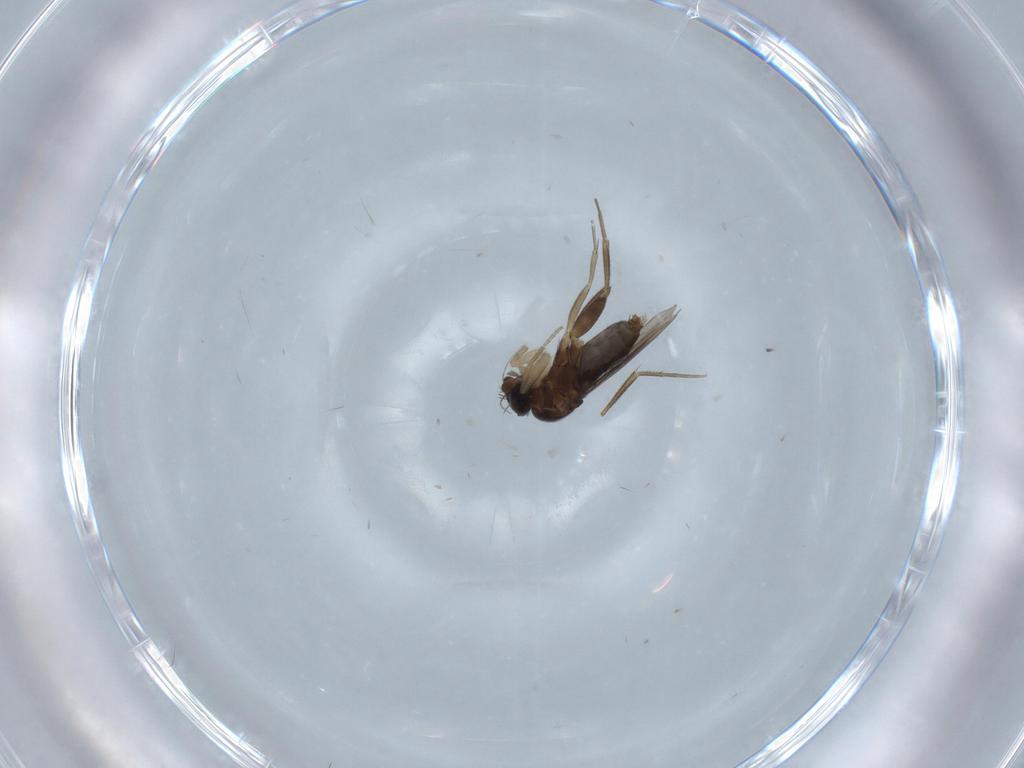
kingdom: Animalia
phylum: Arthropoda
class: Insecta
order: Diptera
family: Phoridae
